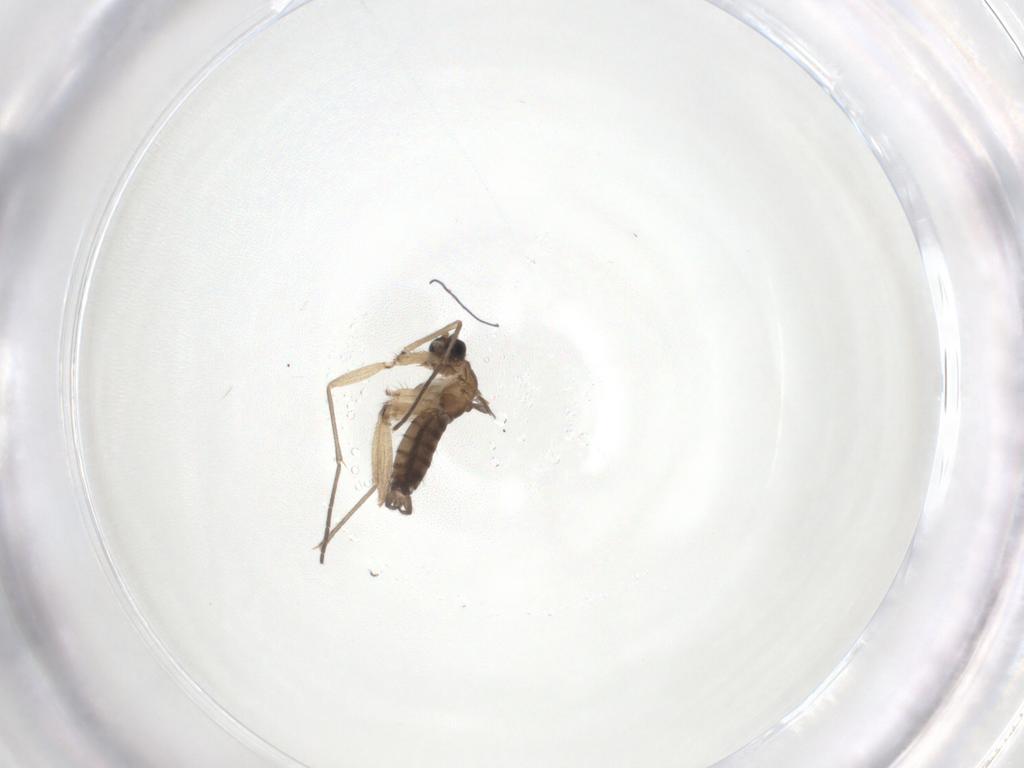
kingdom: Animalia
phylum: Arthropoda
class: Insecta
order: Diptera
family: Sciaridae
